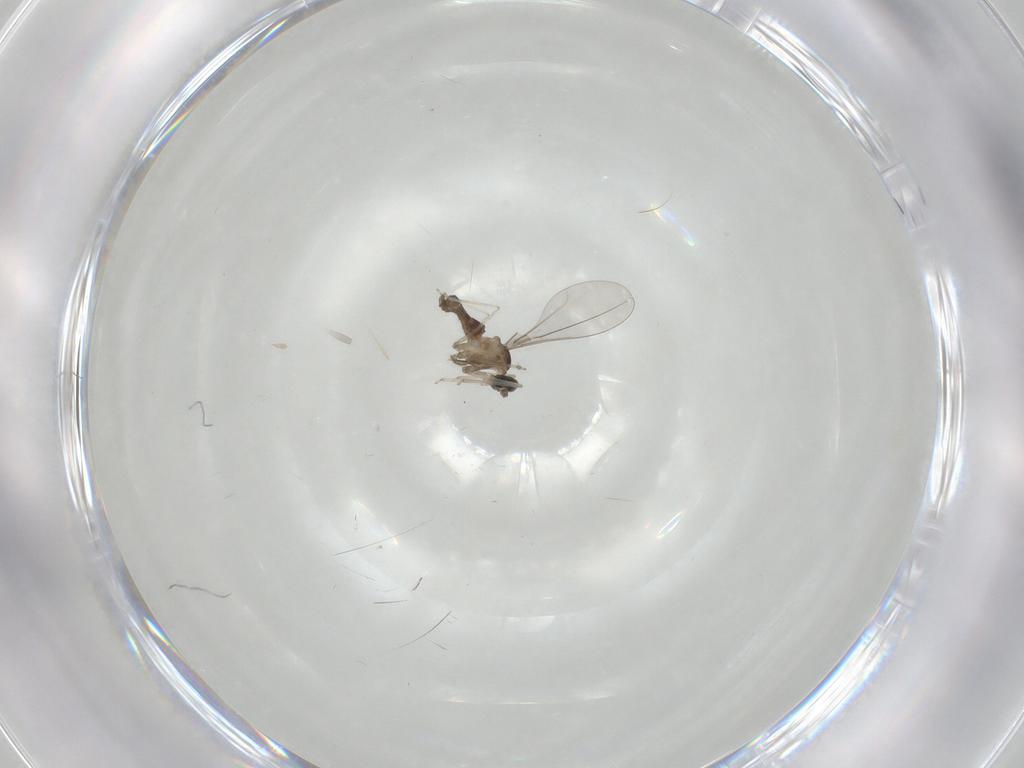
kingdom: Animalia
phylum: Arthropoda
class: Insecta
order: Diptera
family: Cecidomyiidae
